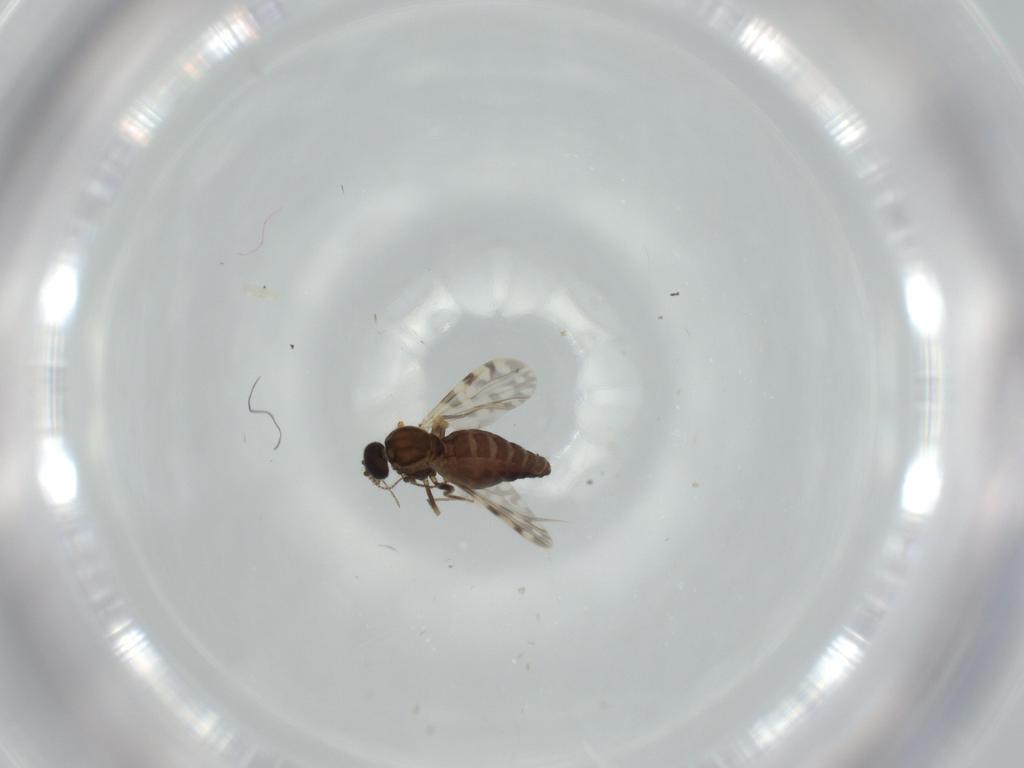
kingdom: Animalia
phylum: Arthropoda
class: Insecta
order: Diptera
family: Ceratopogonidae
